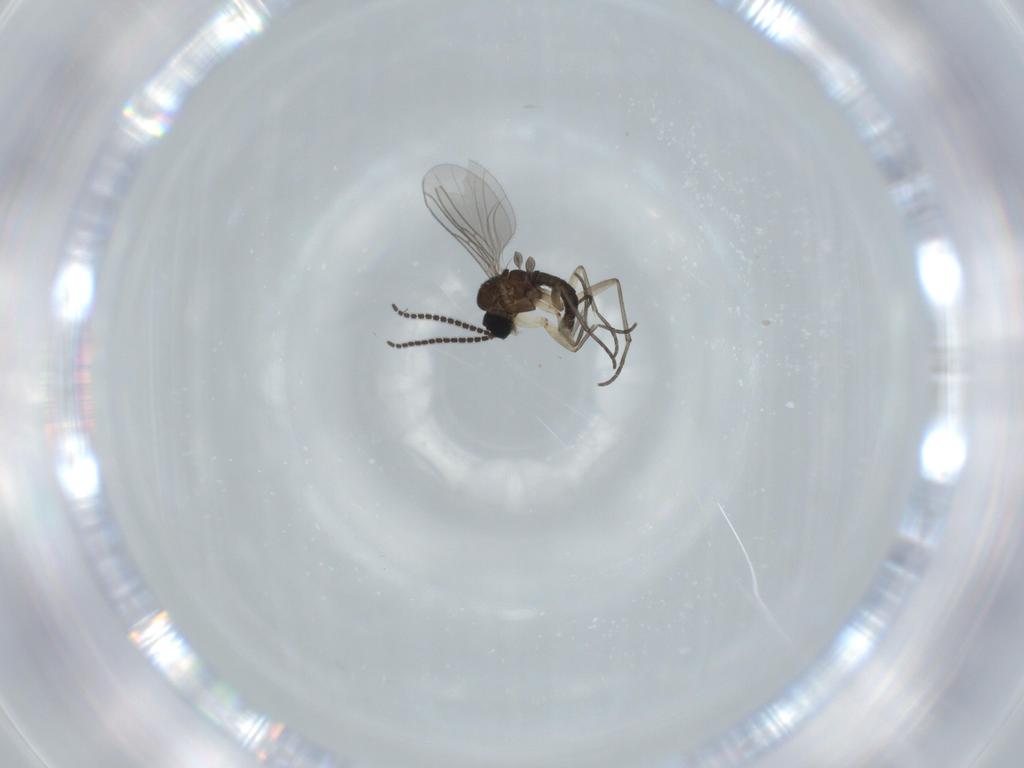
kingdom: Animalia
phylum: Arthropoda
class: Insecta
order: Diptera
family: Sciaridae
